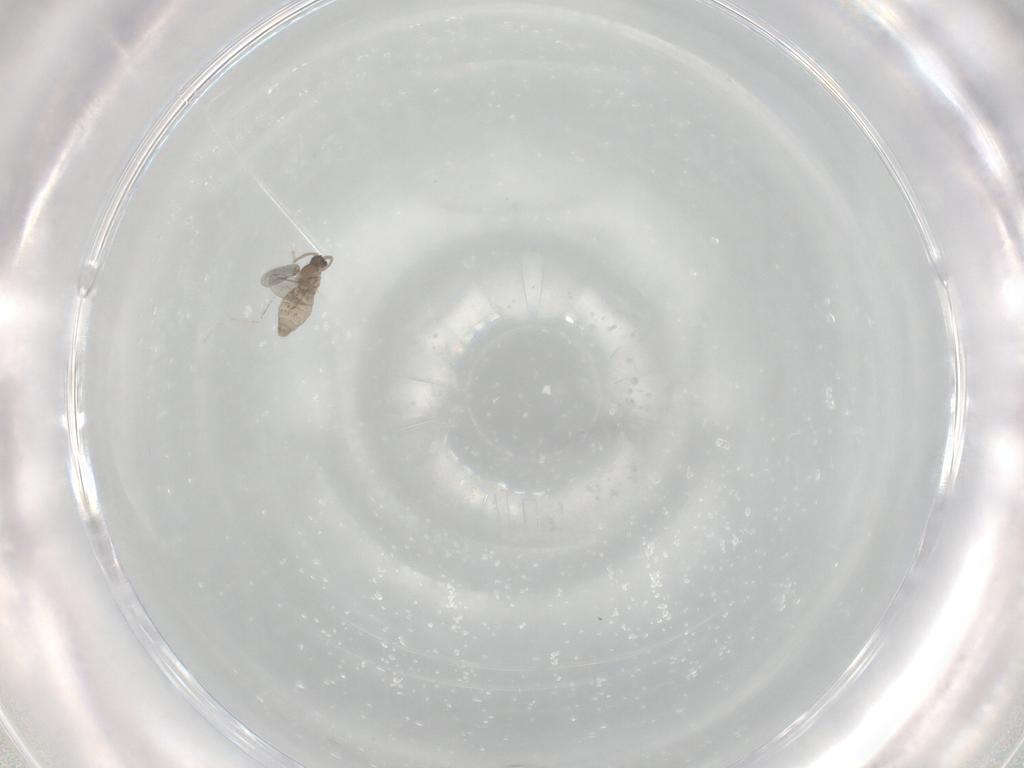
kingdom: Animalia
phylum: Arthropoda
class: Insecta
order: Diptera
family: Cecidomyiidae
